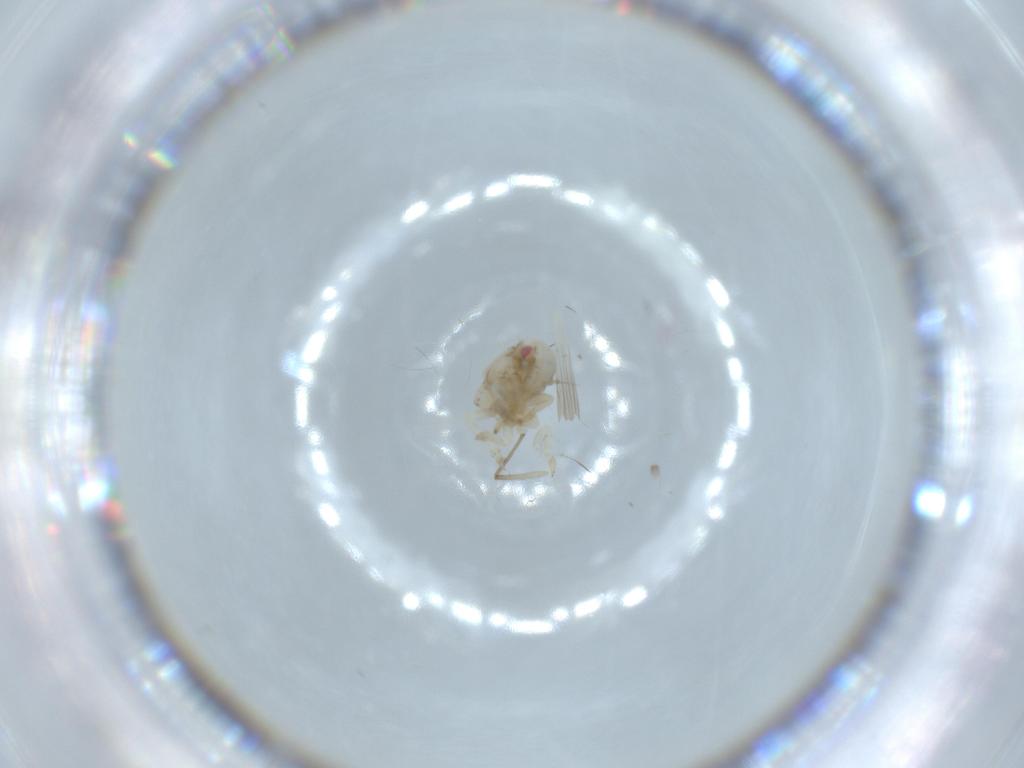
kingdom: Animalia
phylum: Arthropoda
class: Insecta
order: Hemiptera
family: Acanaloniidae
